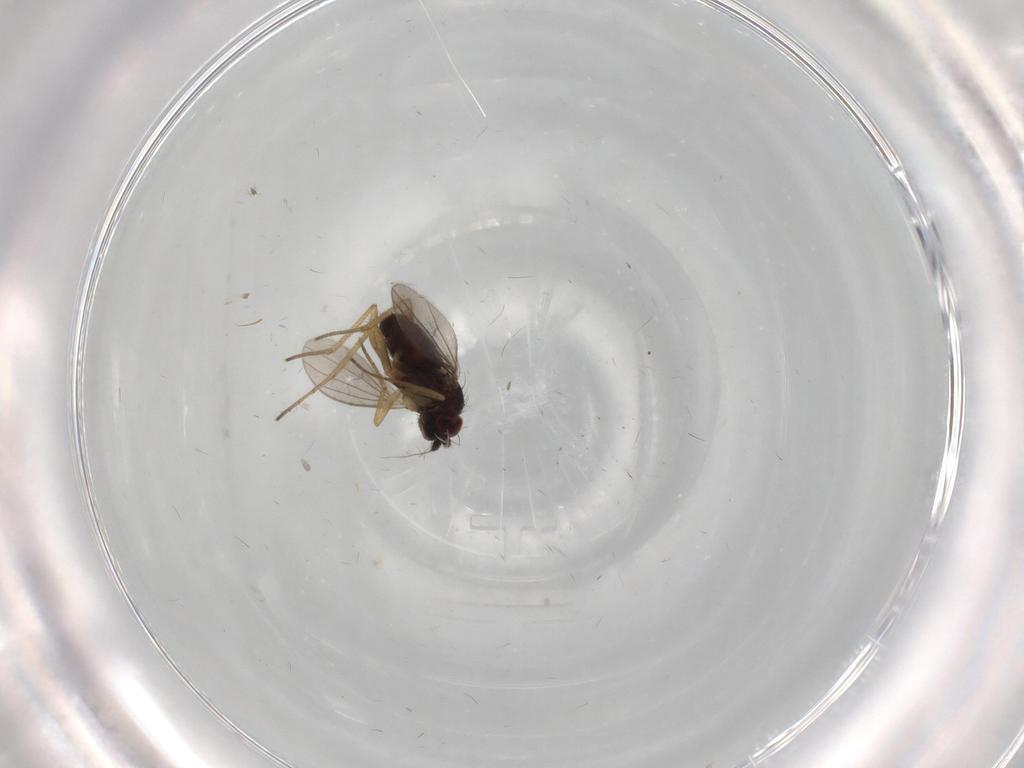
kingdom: Animalia
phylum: Arthropoda
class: Insecta
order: Diptera
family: Dolichopodidae
